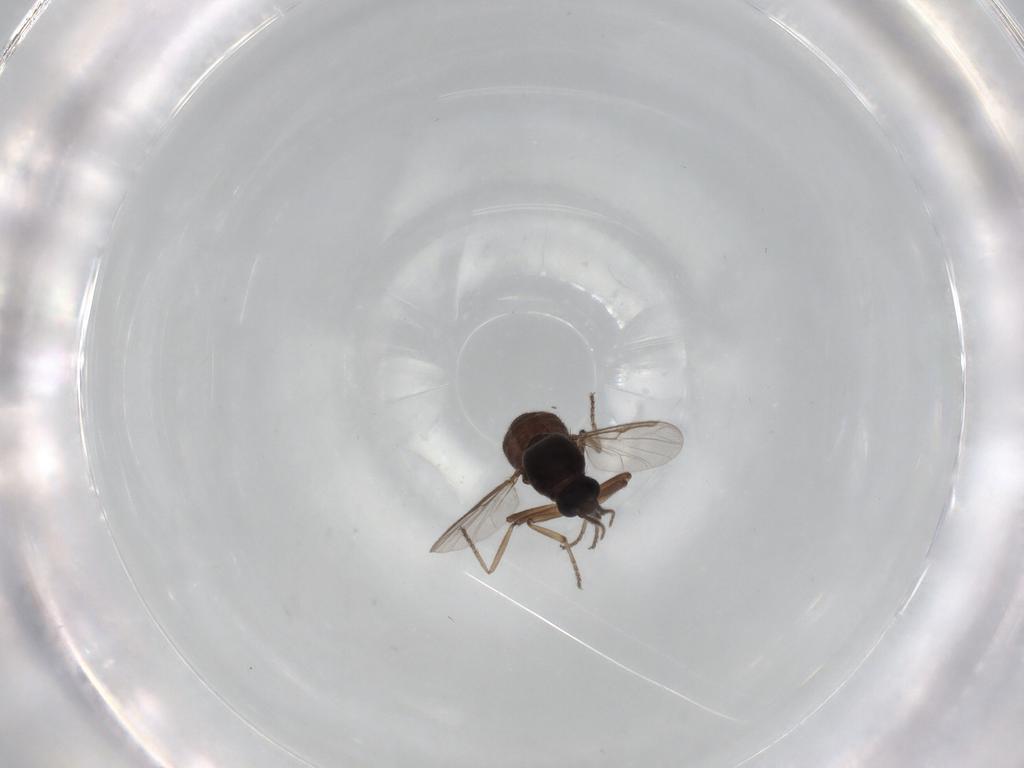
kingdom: Animalia
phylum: Arthropoda
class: Insecta
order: Diptera
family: Ceratopogonidae
